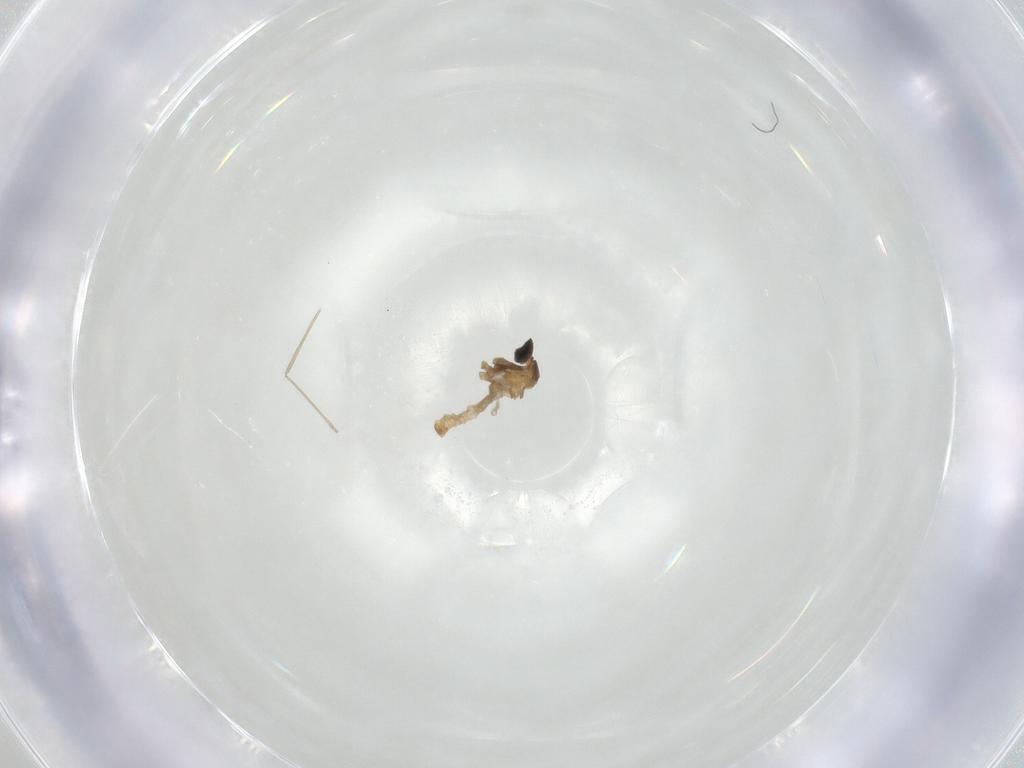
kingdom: Animalia
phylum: Arthropoda
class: Insecta
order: Diptera
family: Cecidomyiidae
